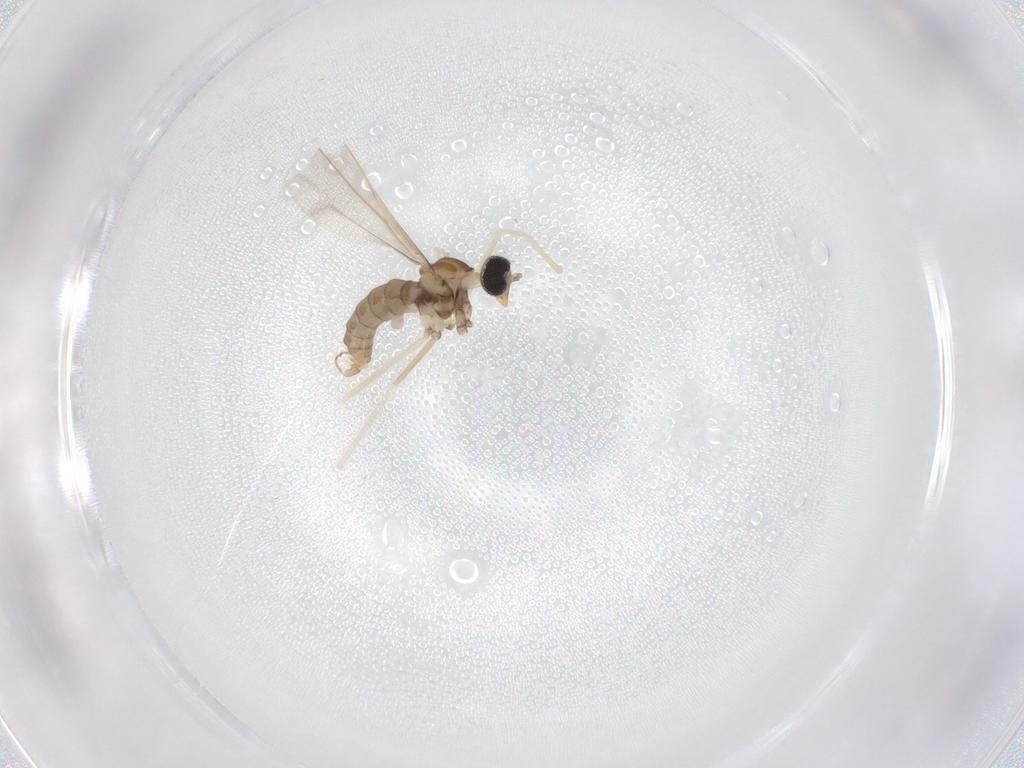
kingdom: Animalia
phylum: Arthropoda
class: Insecta
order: Diptera
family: Cecidomyiidae
